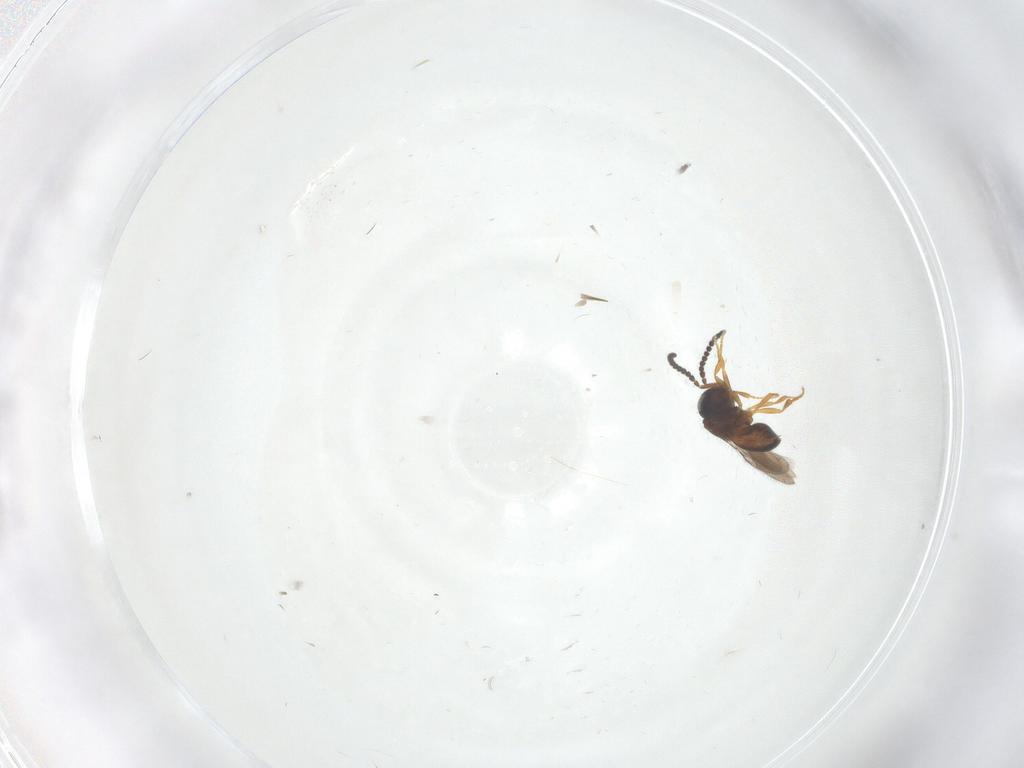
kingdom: Animalia
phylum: Arthropoda
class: Insecta
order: Hymenoptera
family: Scelionidae
